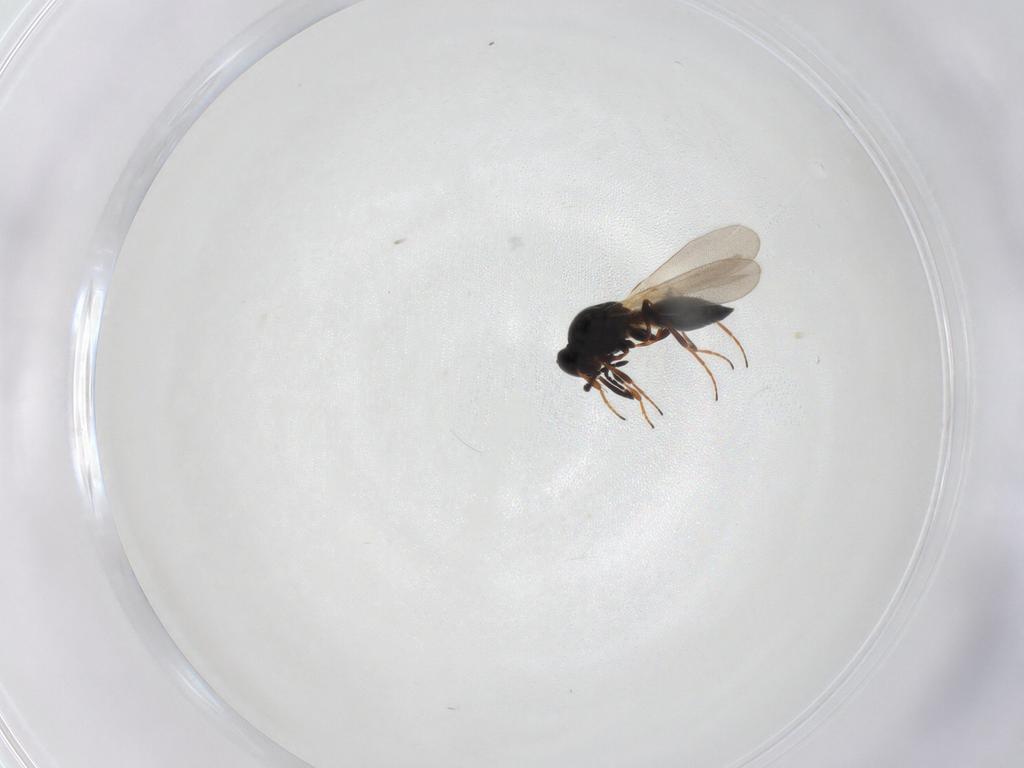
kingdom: Animalia
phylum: Arthropoda
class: Insecta
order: Hymenoptera
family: Platygastridae
